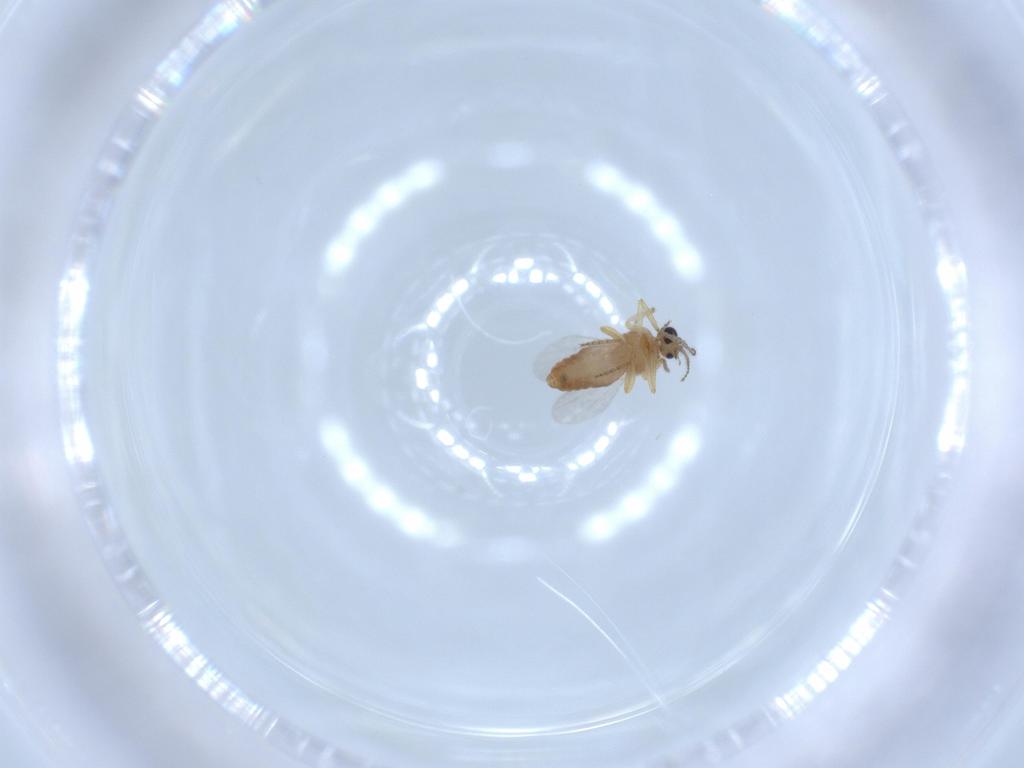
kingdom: Animalia
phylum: Arthropoda
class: Insecta
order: Diptera
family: Ceratopogonidae
